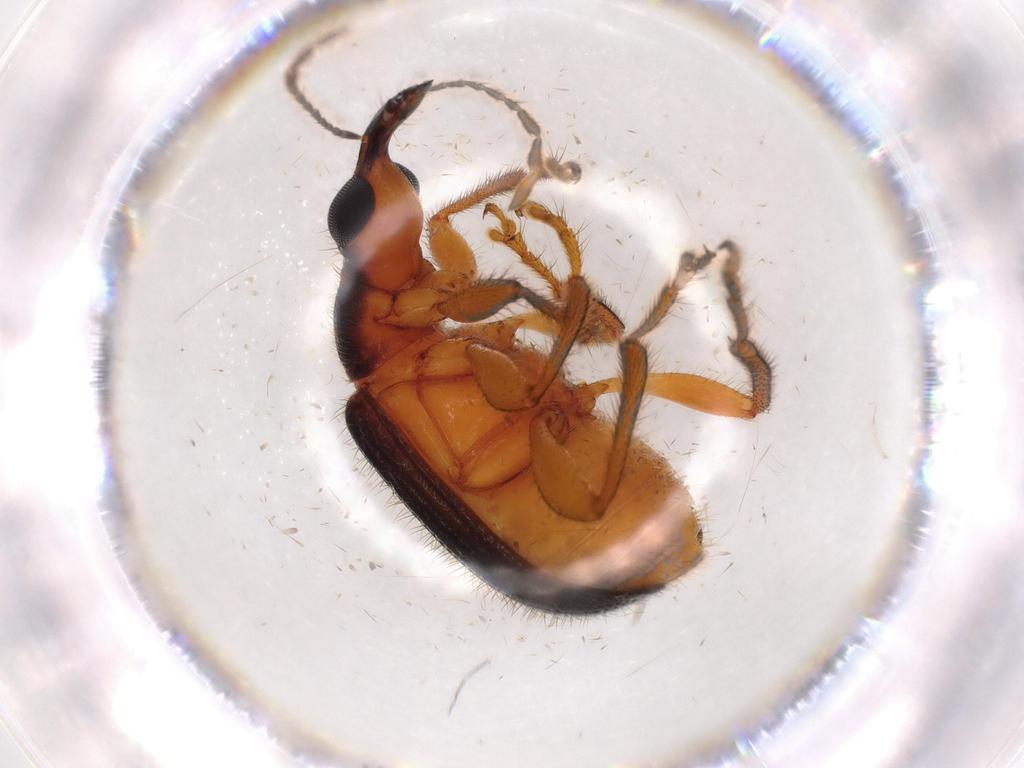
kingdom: Animalia
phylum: Arthropoda
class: Insecta
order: Coleoptera
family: Attelabidae
